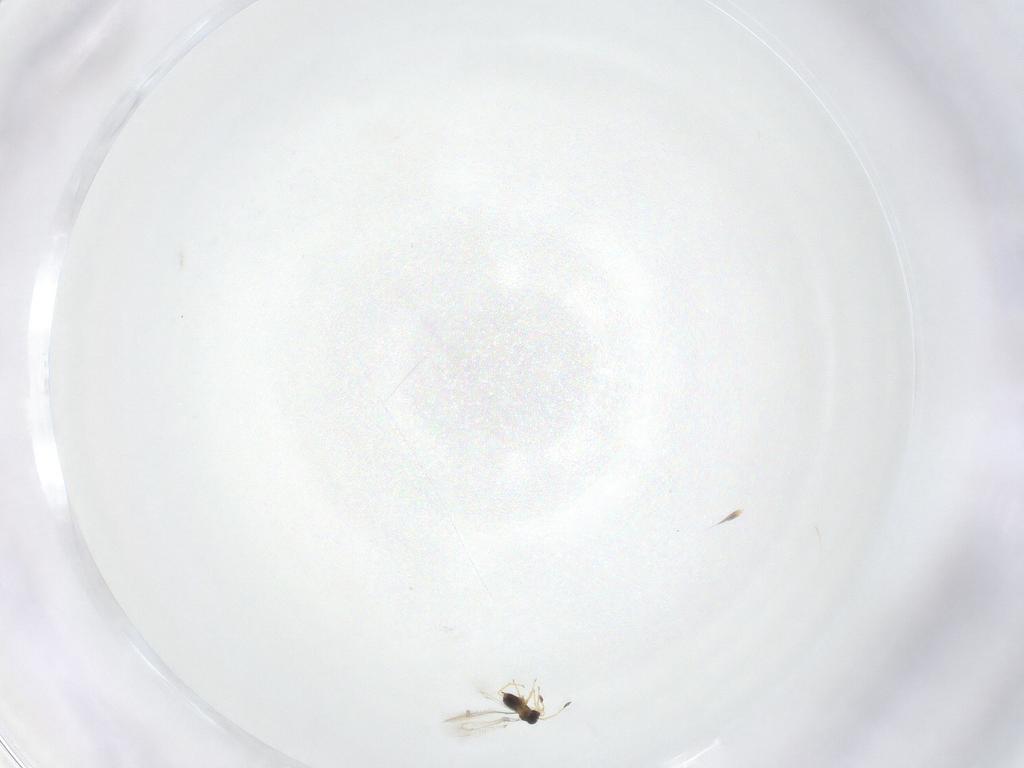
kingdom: Animalia
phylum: Arthropoda
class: Insecta
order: Hymenoptera
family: Mymaridae
